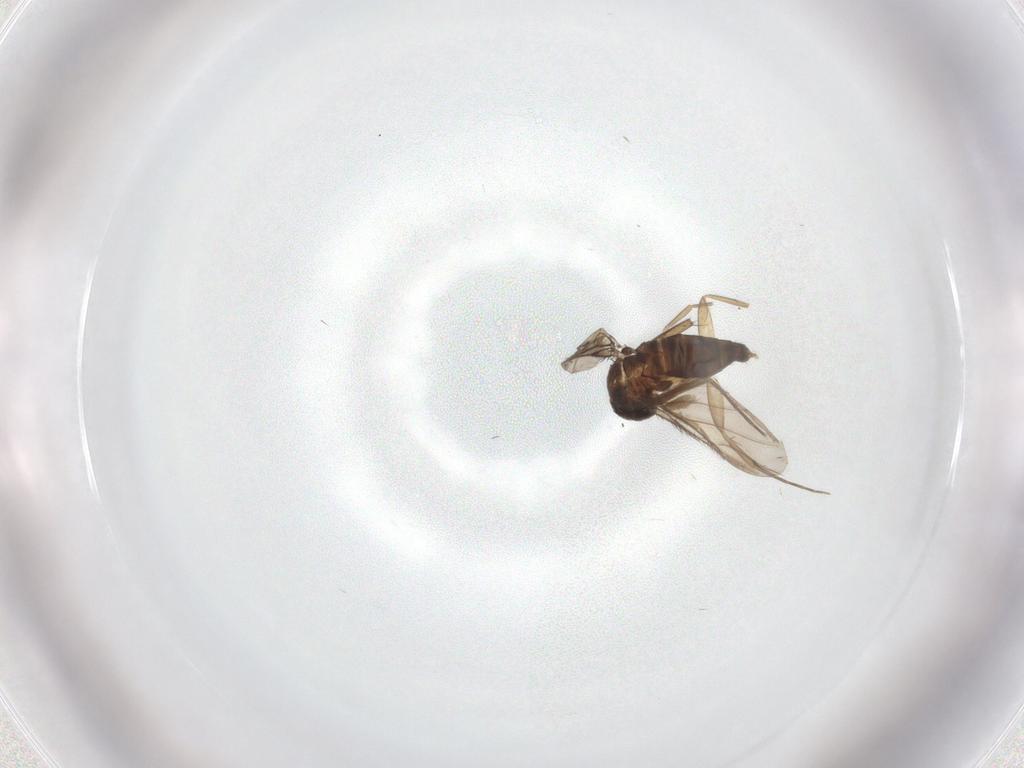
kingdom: Animalia
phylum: Arthropoda
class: Insecta
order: Diptera
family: Phoridae
